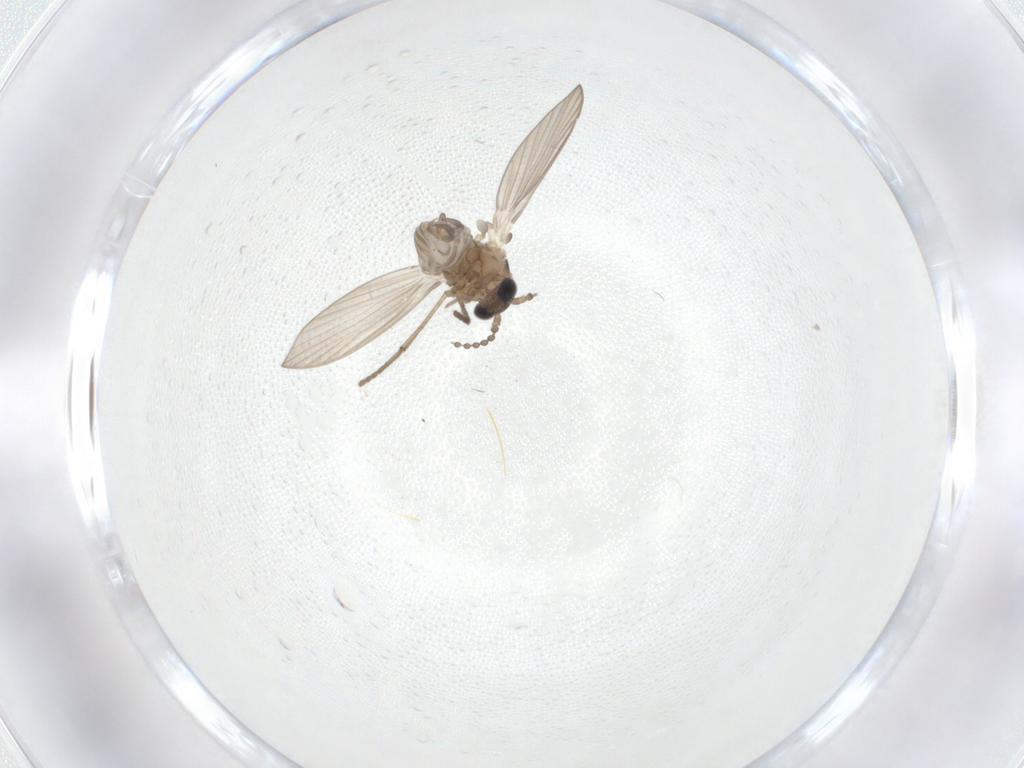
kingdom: Animalia
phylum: Arthropoda
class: Insecta
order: Diptera
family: Psychodidae
